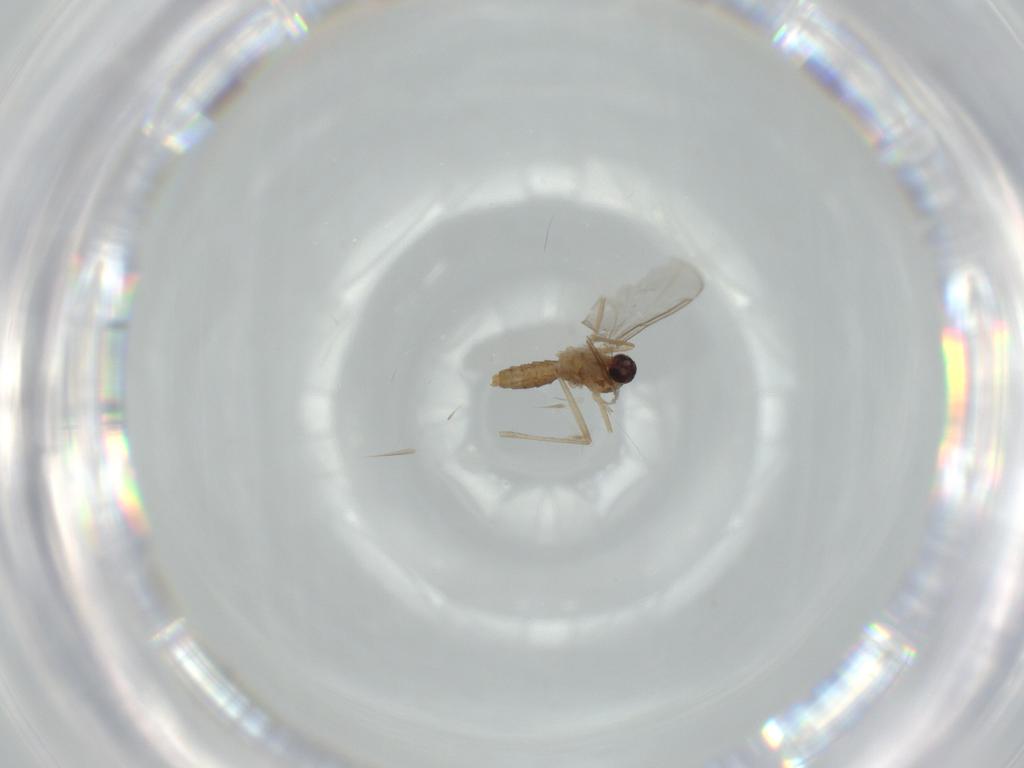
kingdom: Animalia
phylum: Arthropoda
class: Insecta
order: Diptera
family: Cecidomyiidae
